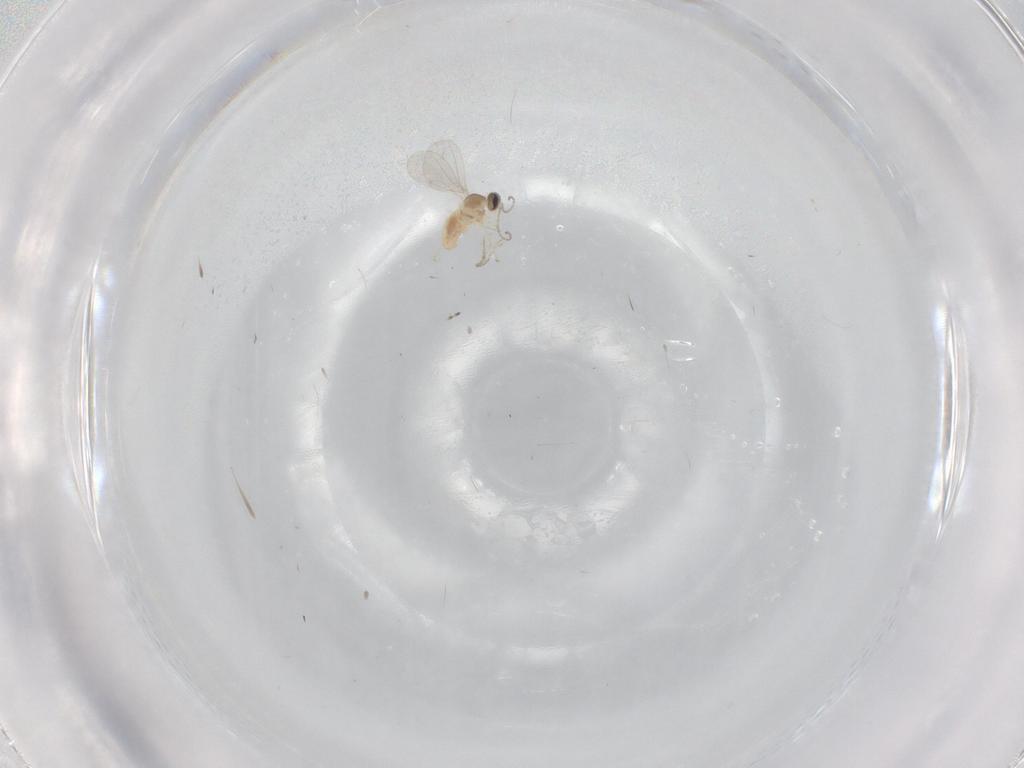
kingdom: Animalia
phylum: Arthropoda
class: Insecta
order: Diptera
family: Cecidomyiidae
